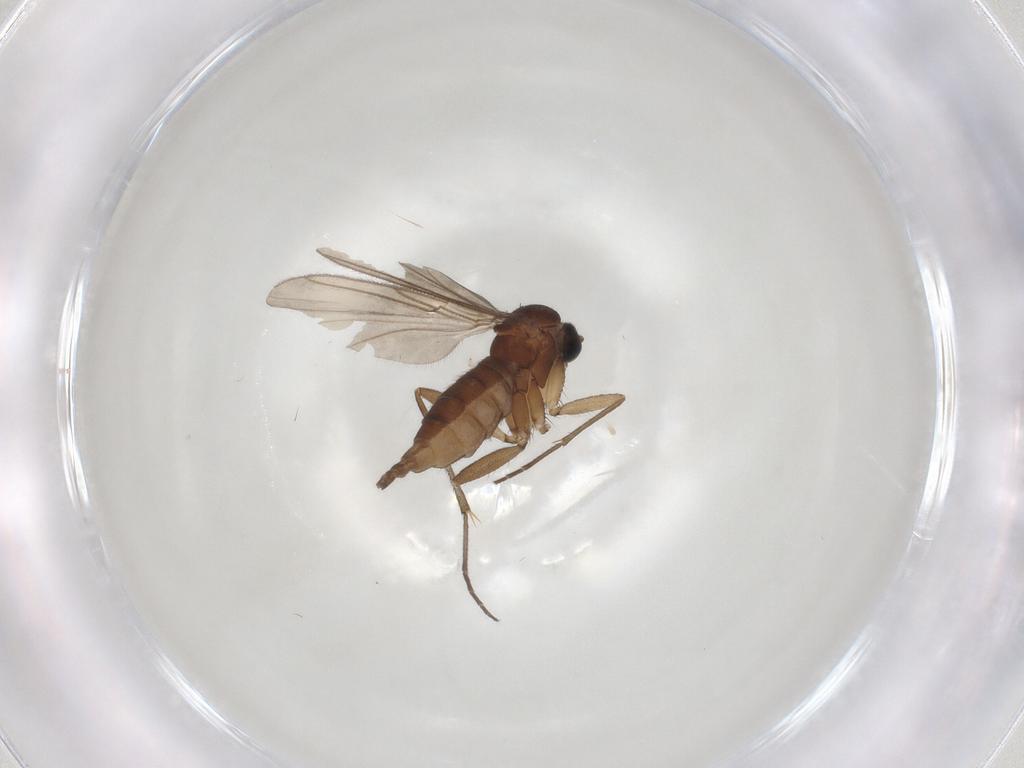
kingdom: Animalia
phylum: Arthropoda
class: Insecta
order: Diptera
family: Sciaridae
